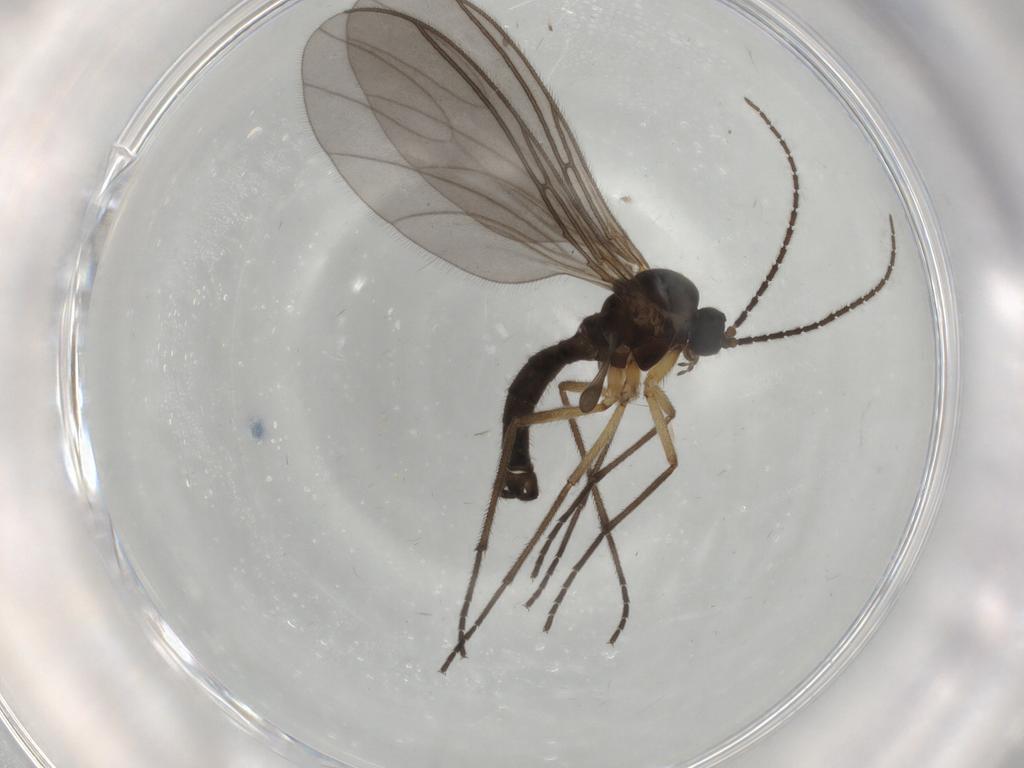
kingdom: Animalia
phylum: Arthropoda
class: Insecta
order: Diptera
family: Sciaridae
